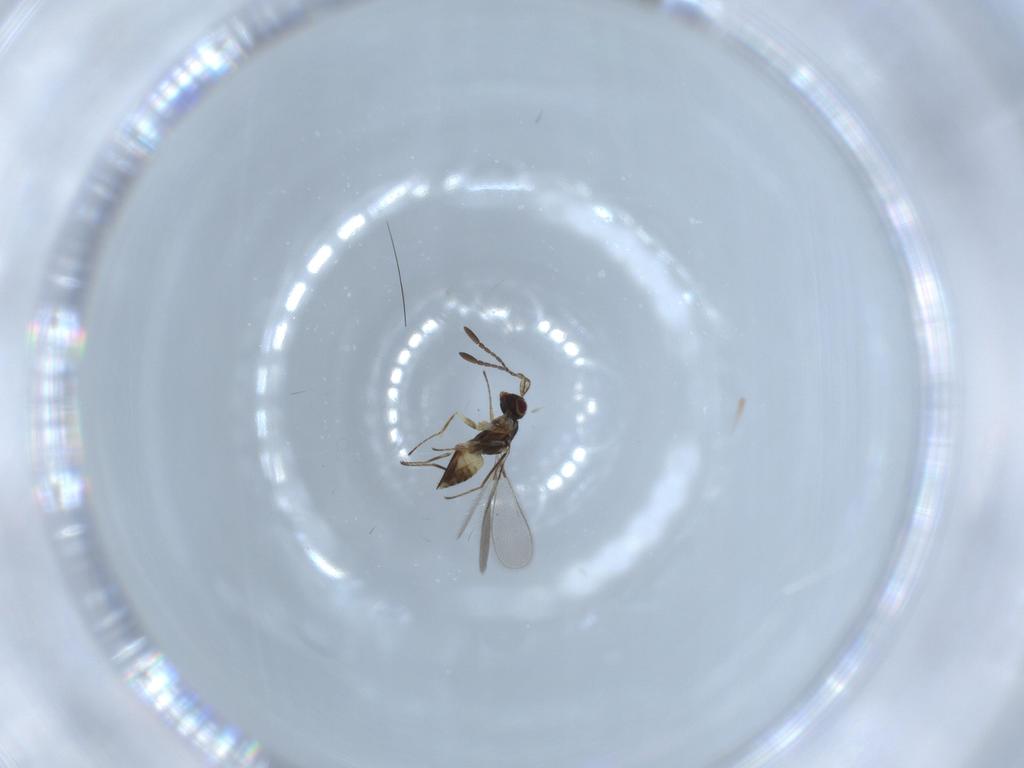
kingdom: Animalia
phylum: Arthropoda
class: Insecta
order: Hymenoptera
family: Mymaridae
